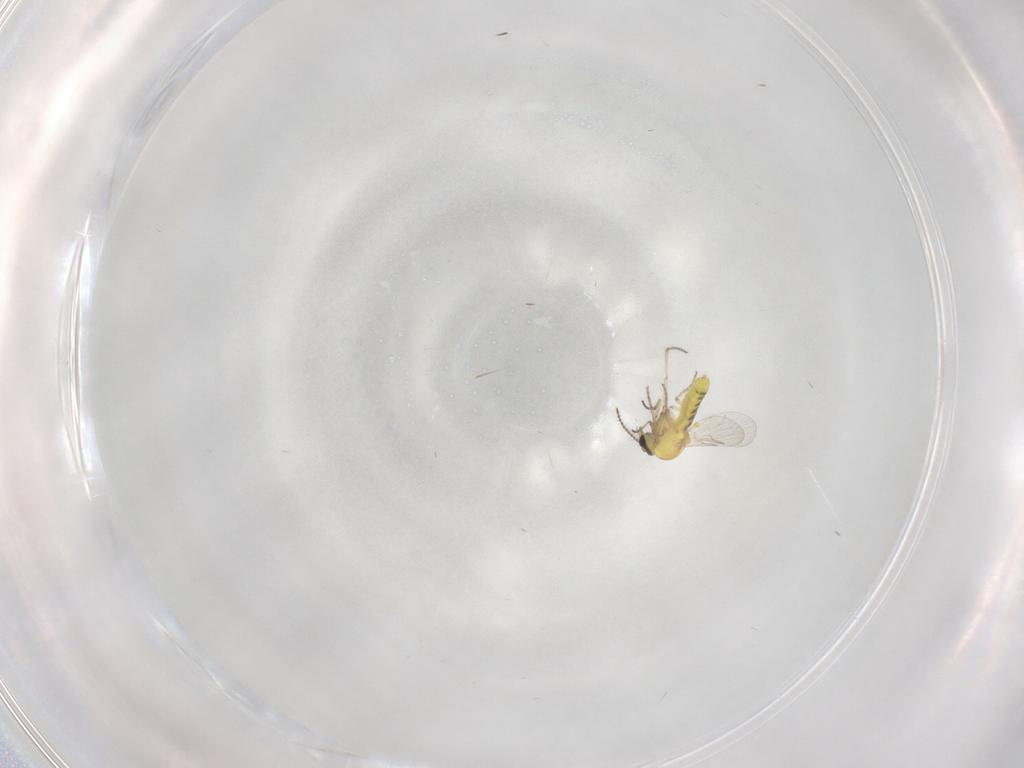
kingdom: Animalia
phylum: Arthropoda
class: Insecta
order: Diptera
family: Ceratopogonidae
